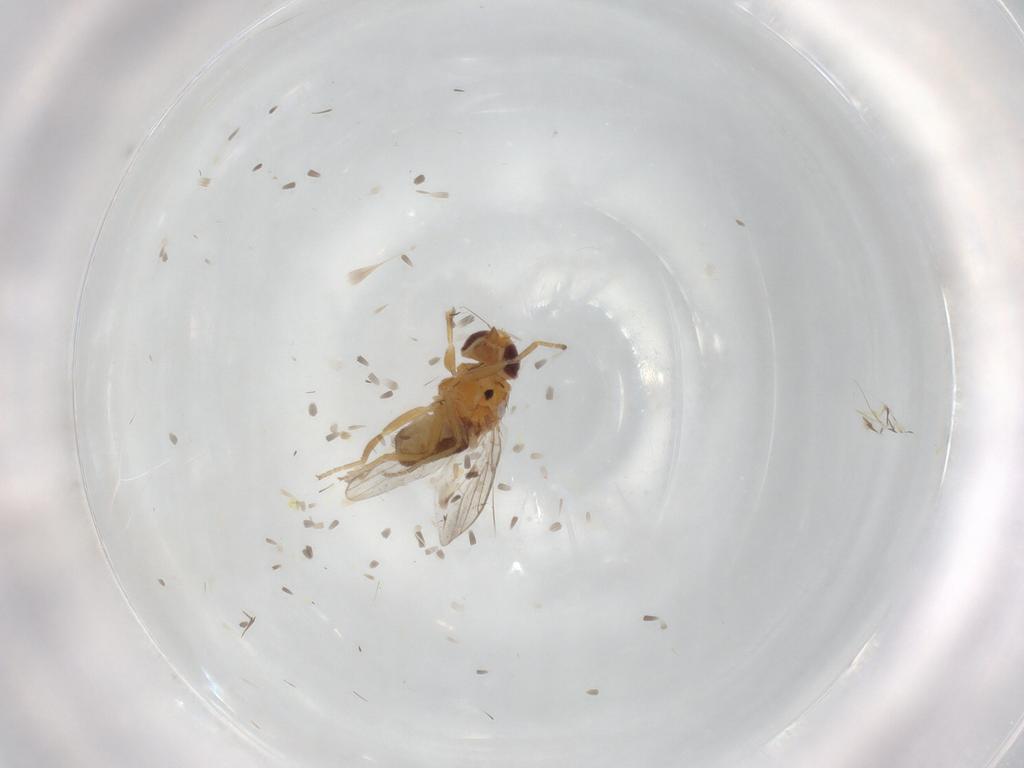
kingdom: Animalia
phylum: Arthropoda
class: Insecta
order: Diptera
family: Chloropidae
